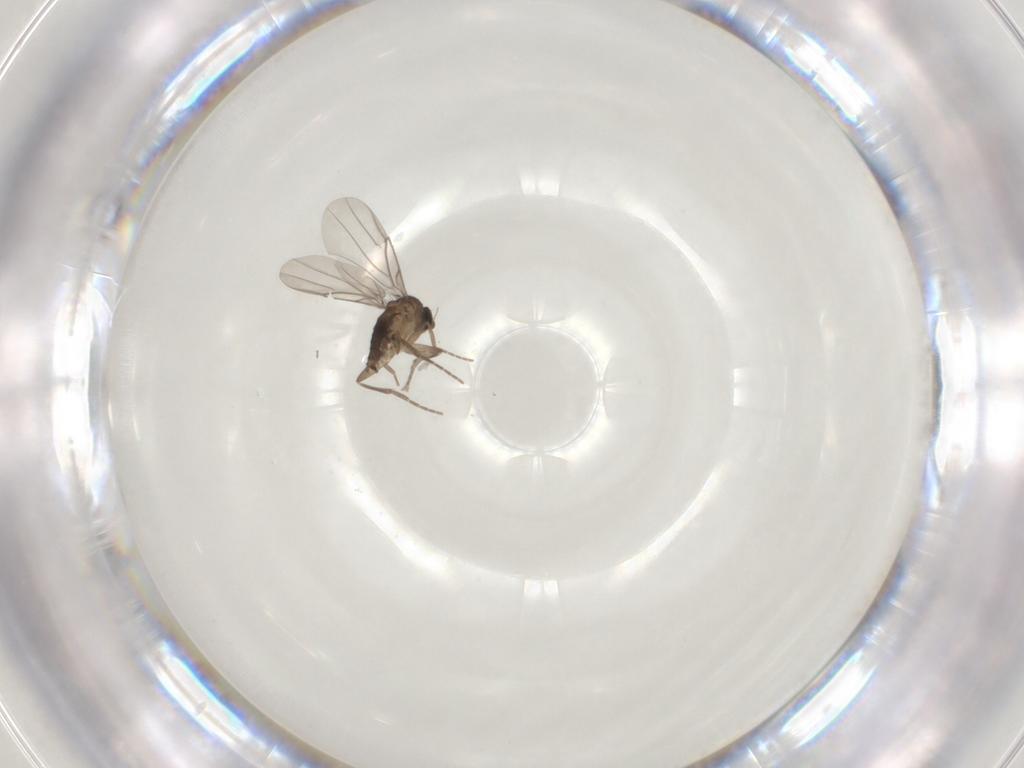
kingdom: Animalia
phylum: Arthropoda
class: Insecta
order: Diptera
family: Phoridae
